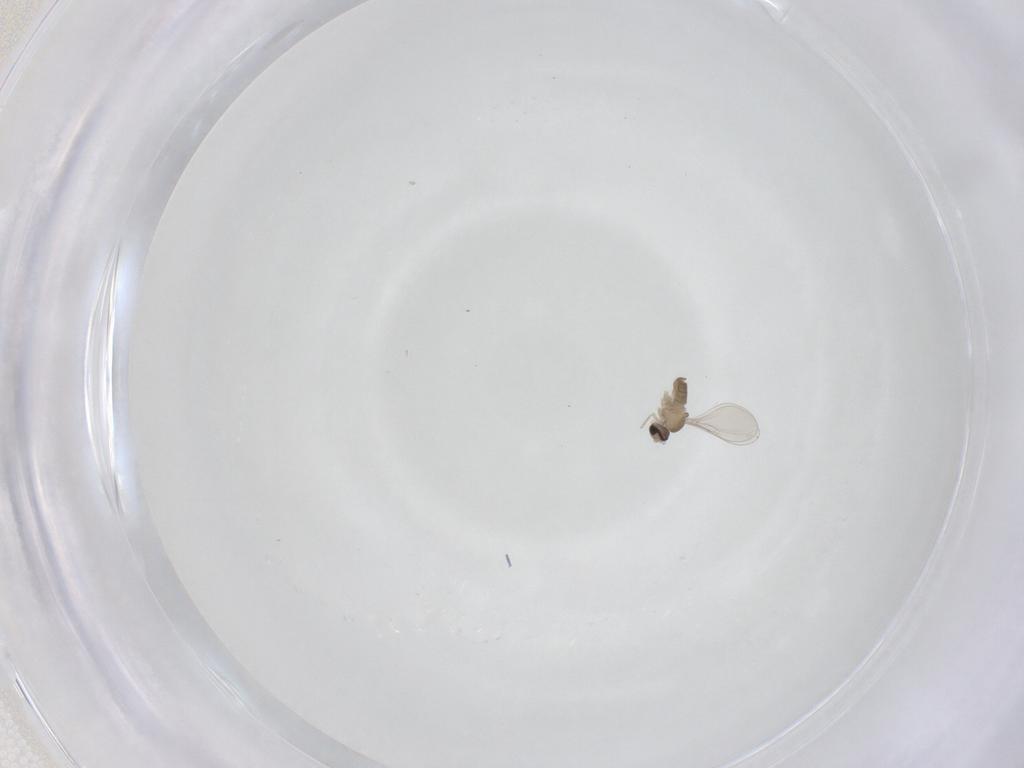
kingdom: Animalia
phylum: Arthropoda
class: Insecta
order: Diptera
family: Cecidomyiidae
